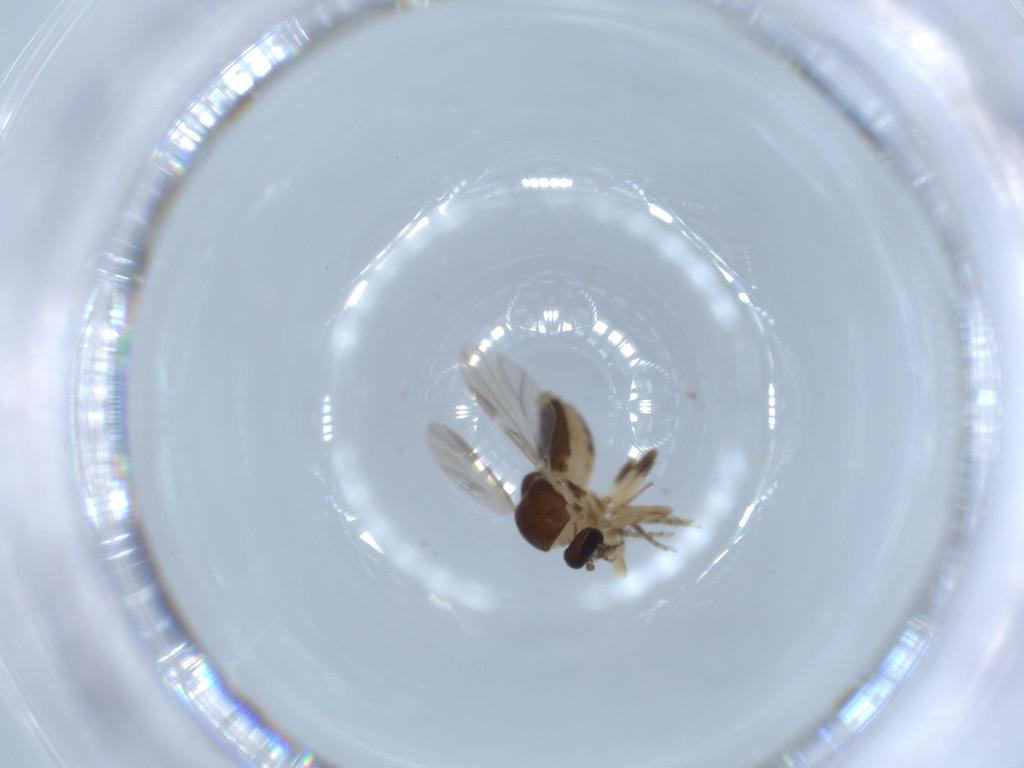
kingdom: Animalia
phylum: Arthropoda
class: Insecta
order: Diptera
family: Ceratopogonidae
